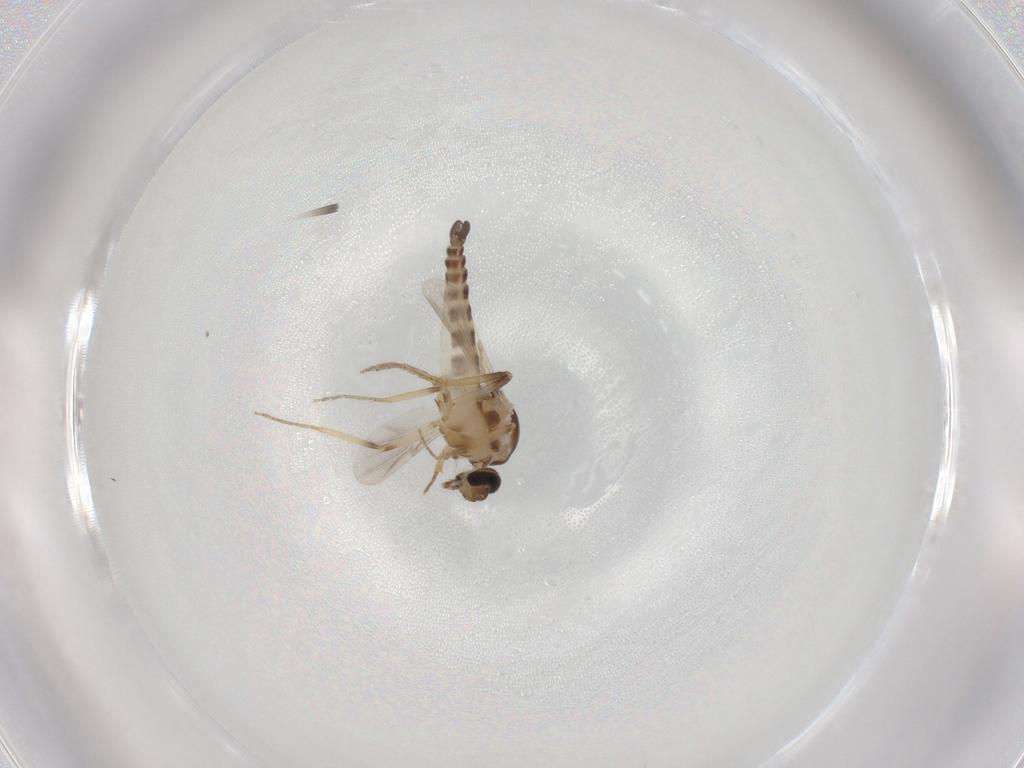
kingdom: Animalia
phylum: Arthropoda
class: Insecta
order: Diptera
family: Ceratopogonidae
